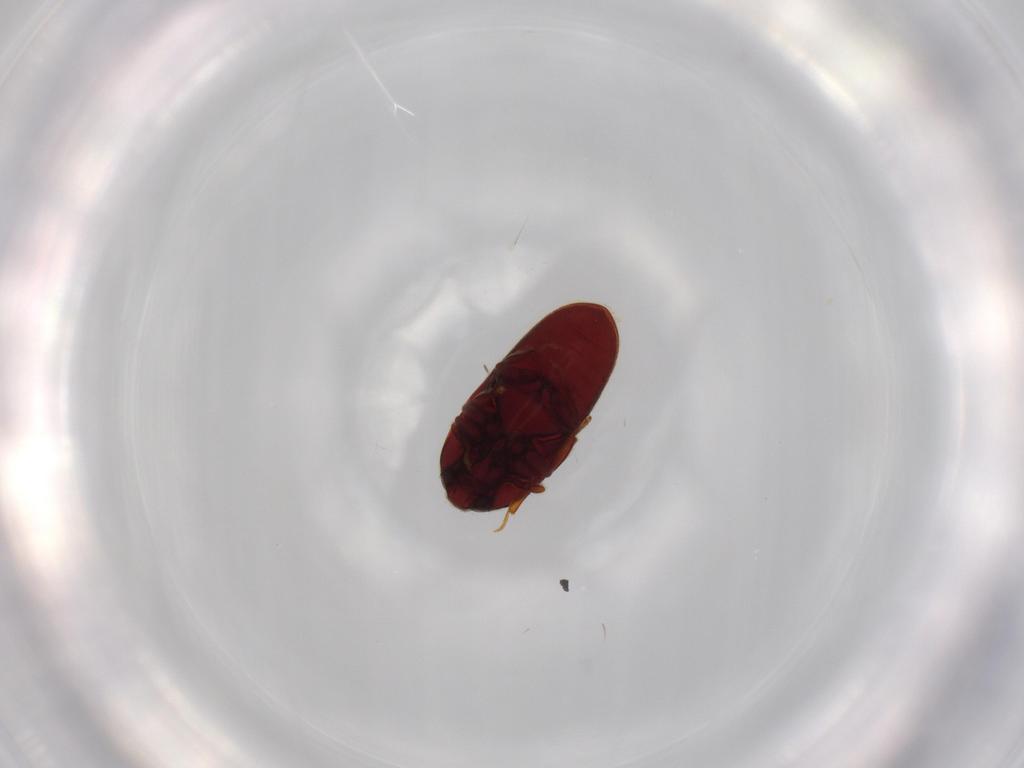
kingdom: Animalia
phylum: Arthropoda
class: Insecta
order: Coleoptera
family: Throscidae
